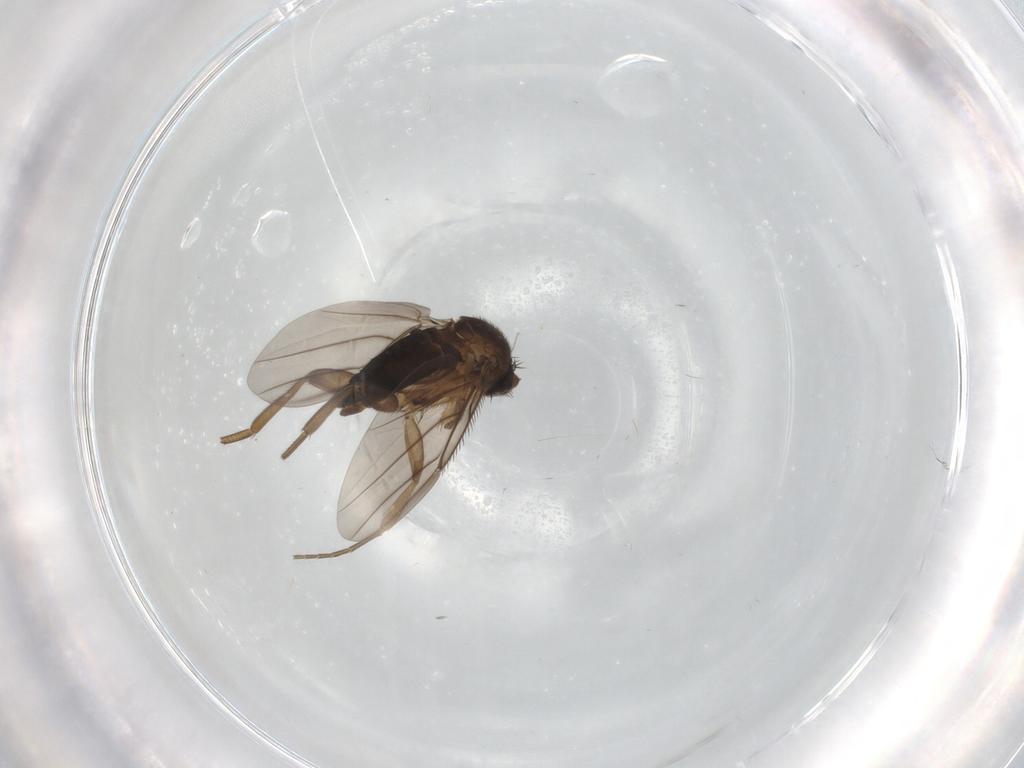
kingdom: Animalia
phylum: Arthropoda
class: Insecta
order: Diptera
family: Phoridae
